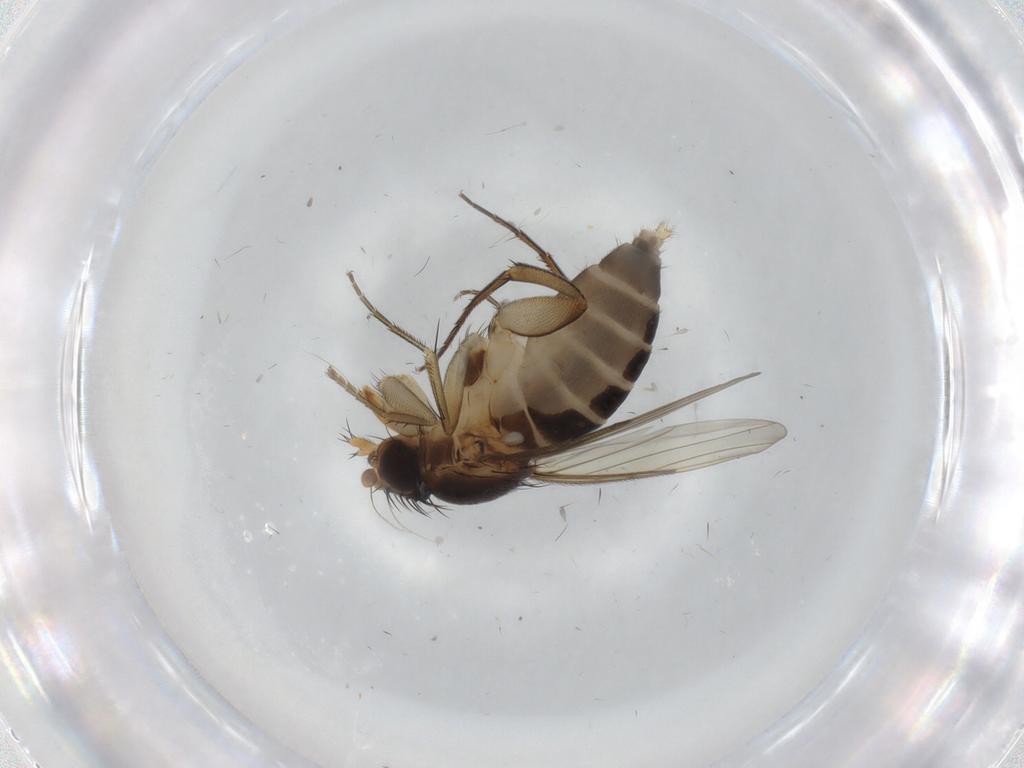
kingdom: Animalia
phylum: Arthropoda
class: Insecta
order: Diptera
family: Phoridae
